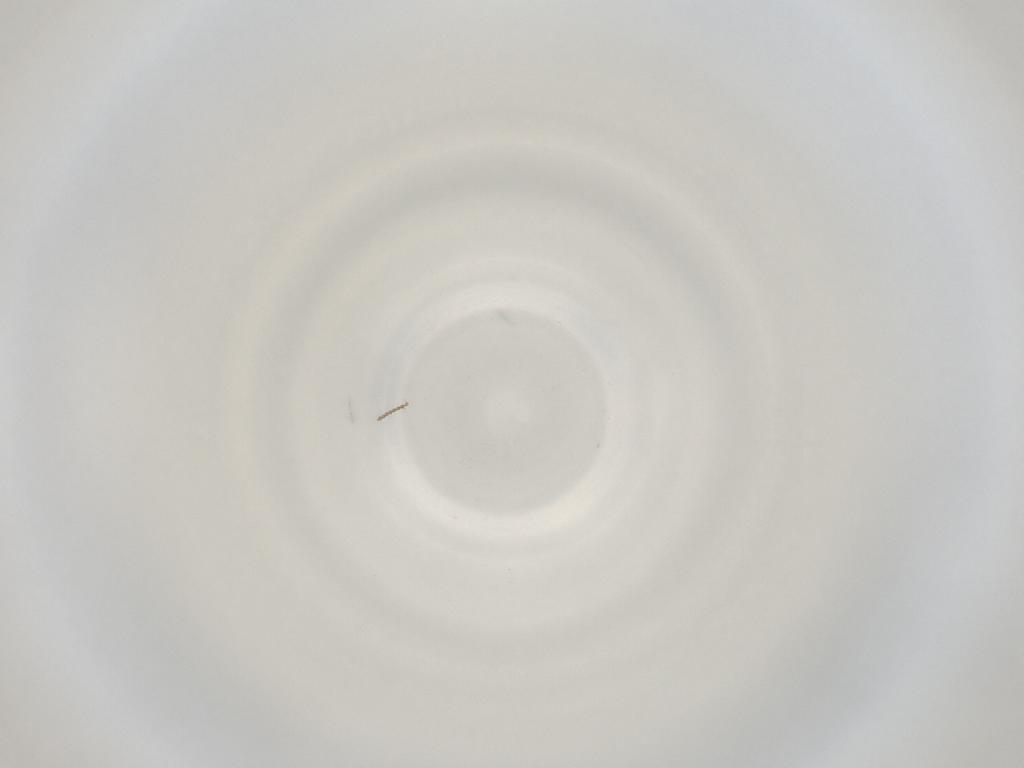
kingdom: Animalia
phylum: Arthropoda
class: Insecta
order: Diptera
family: Cecidomyiidae
